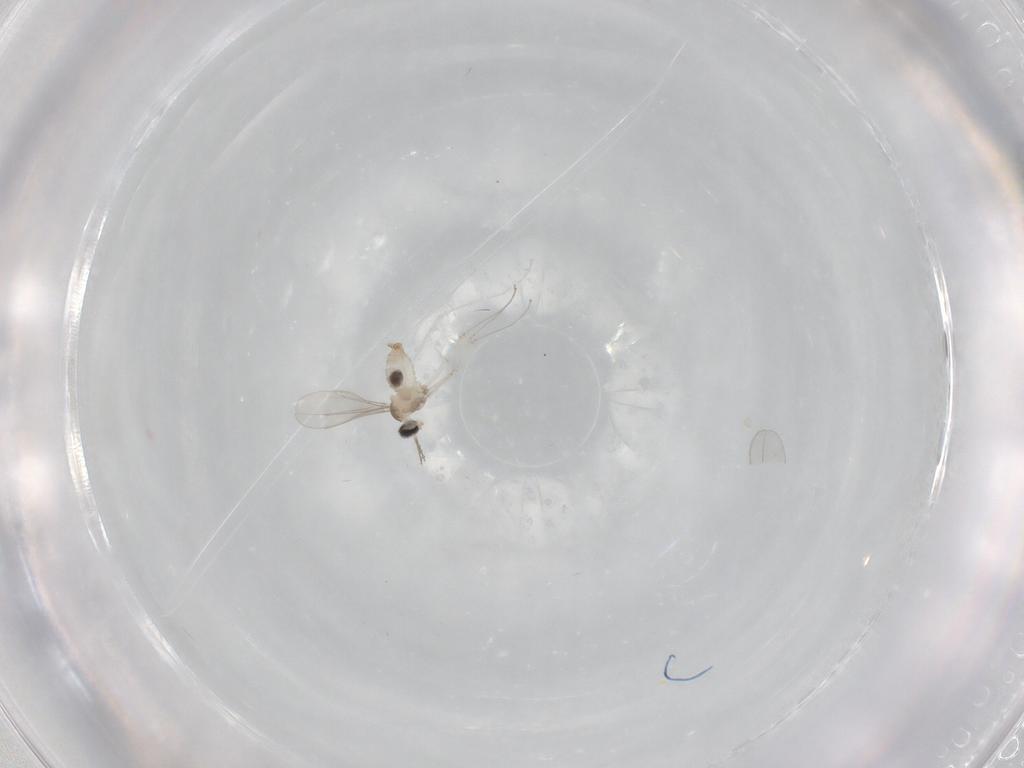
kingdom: Animalia
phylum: Arthropoda
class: Insecta
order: Diptera
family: Cecidomyiidae
